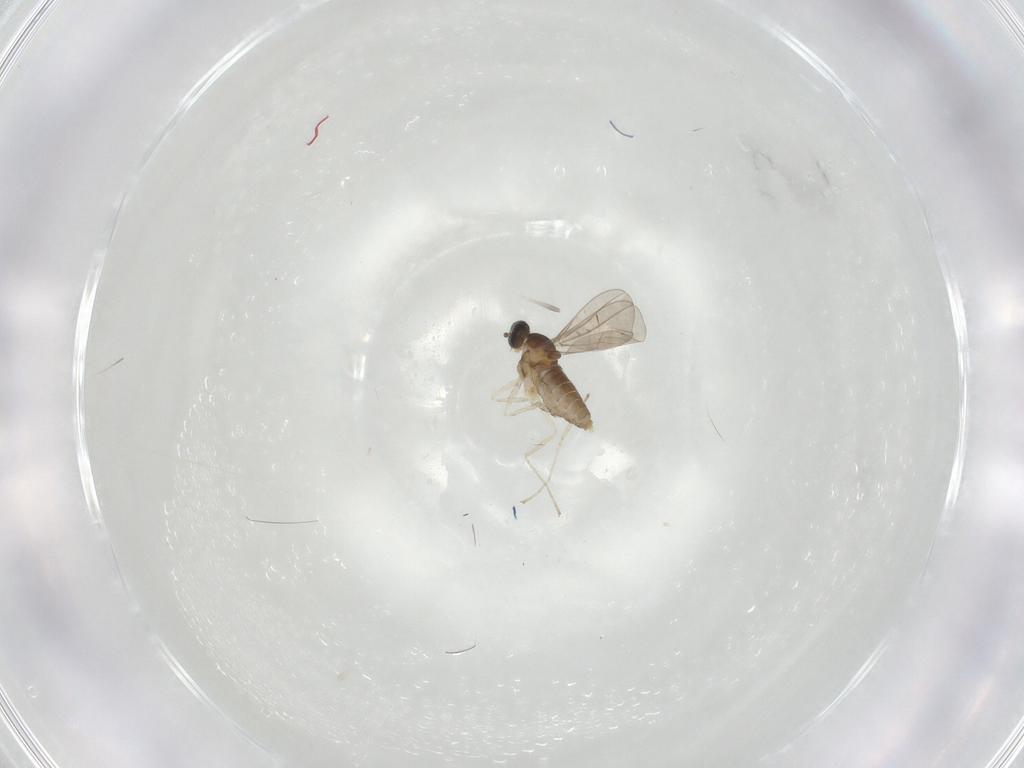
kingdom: Animalia
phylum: Arthropoda
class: Insecta
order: Diptera
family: Cecidomyiidae
